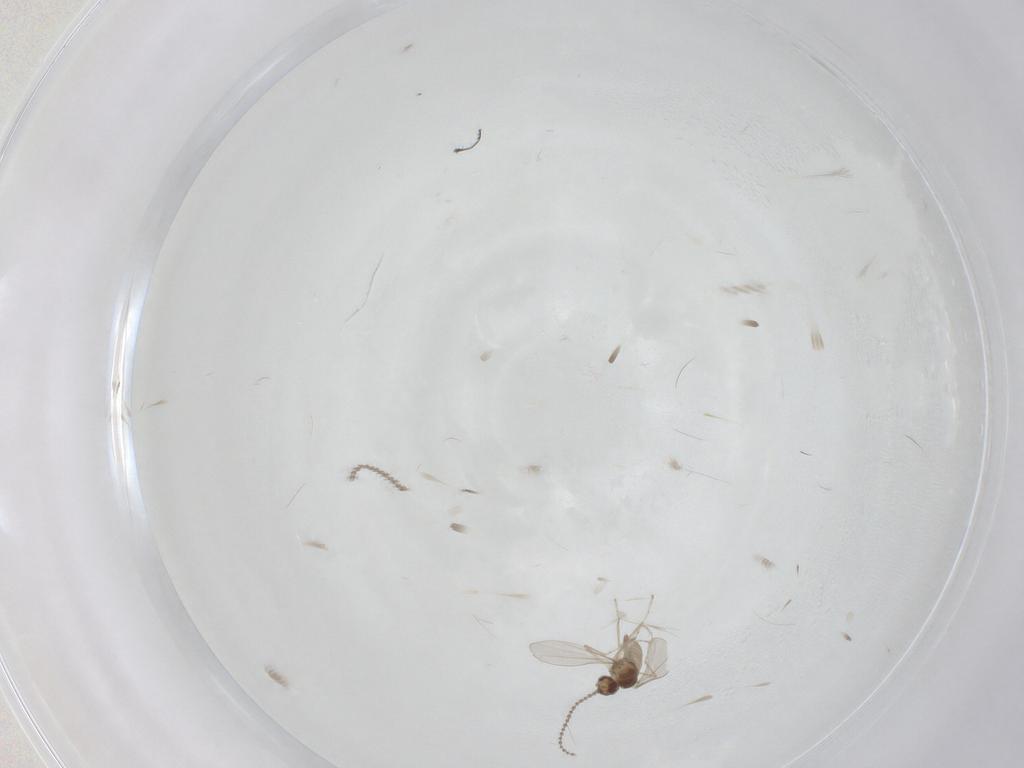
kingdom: Animalia
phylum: Arthropoda
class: Insecta
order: Diptera
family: Cecidomyiidae
